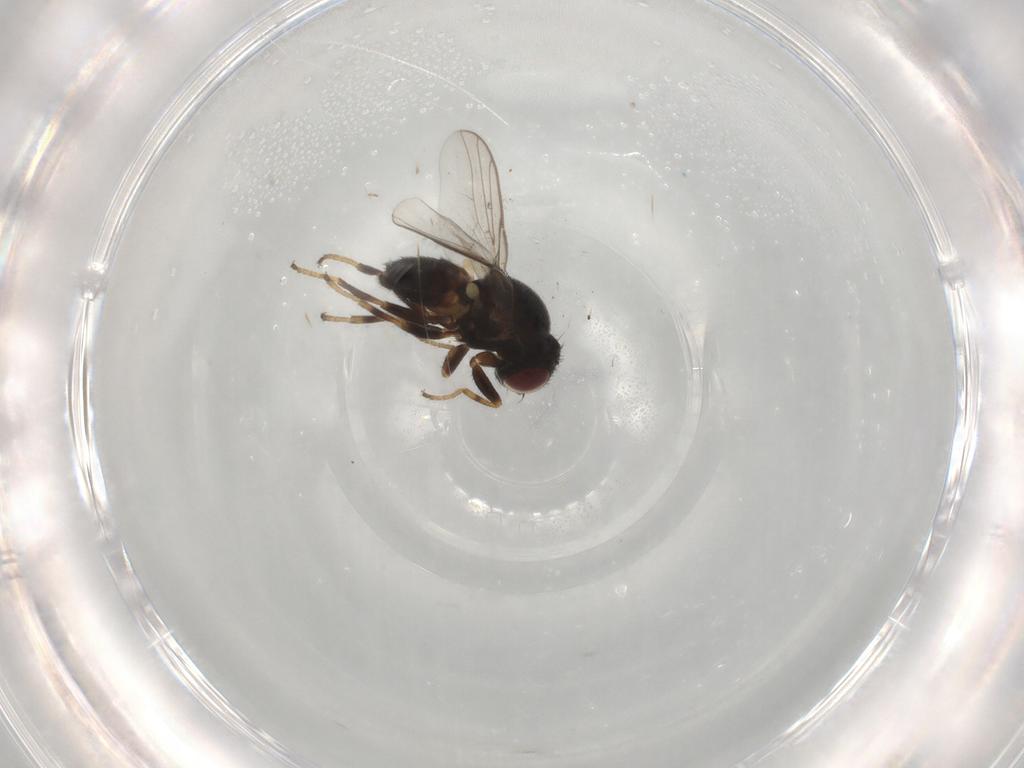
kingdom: Animalia
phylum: Arthropoda
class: Insecta
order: Diptera
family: Chloropidae
